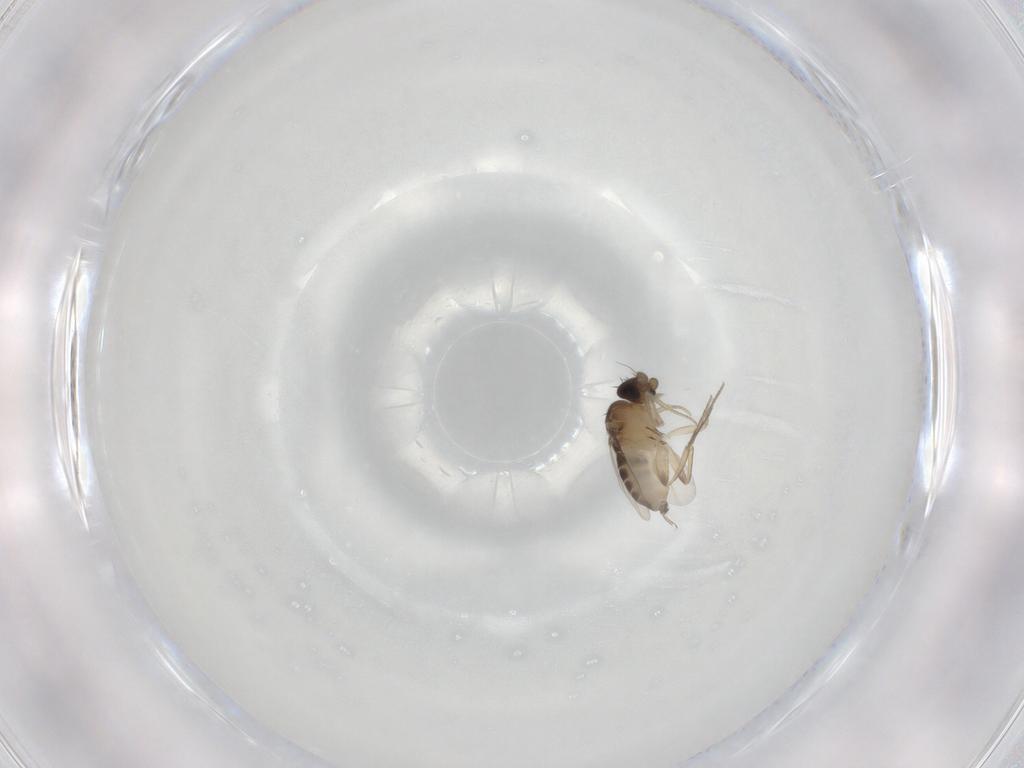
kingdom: Animalia
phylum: Arthropoda
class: Insecta
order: Diptera
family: Phoridae
